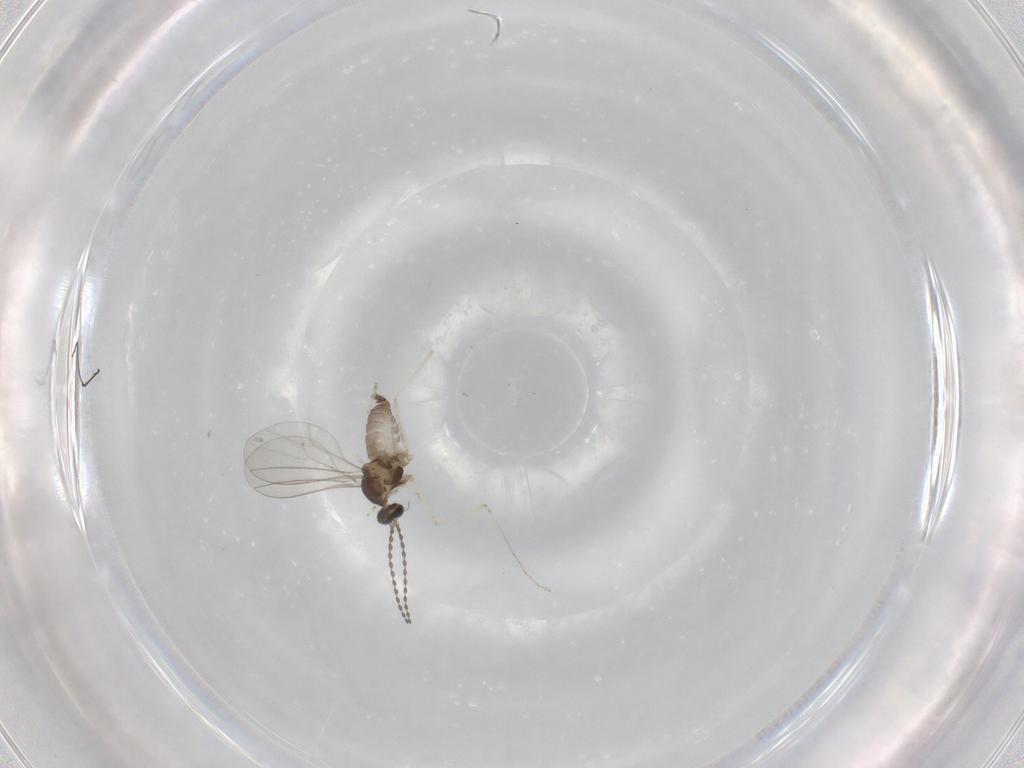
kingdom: Animalia
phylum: Arthropoda
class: Insecta
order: Diptera
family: Cecidomyiidae
